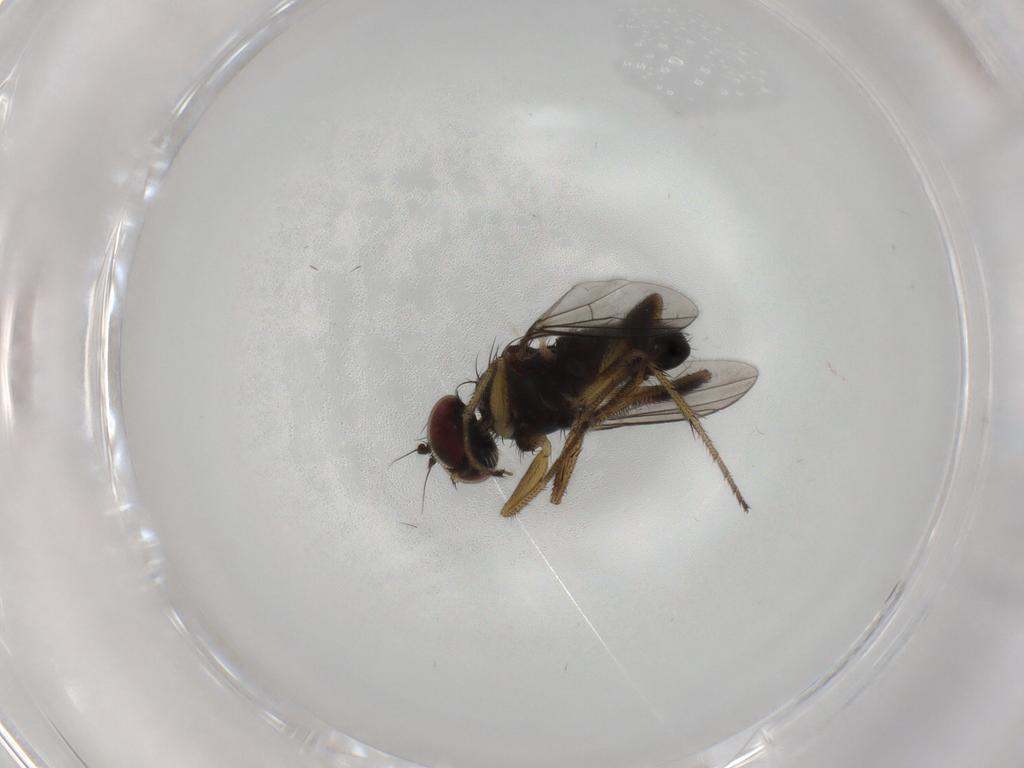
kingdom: Animalia
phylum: Arthropoda
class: Insecta
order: Diptera
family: Dolichopodidae
